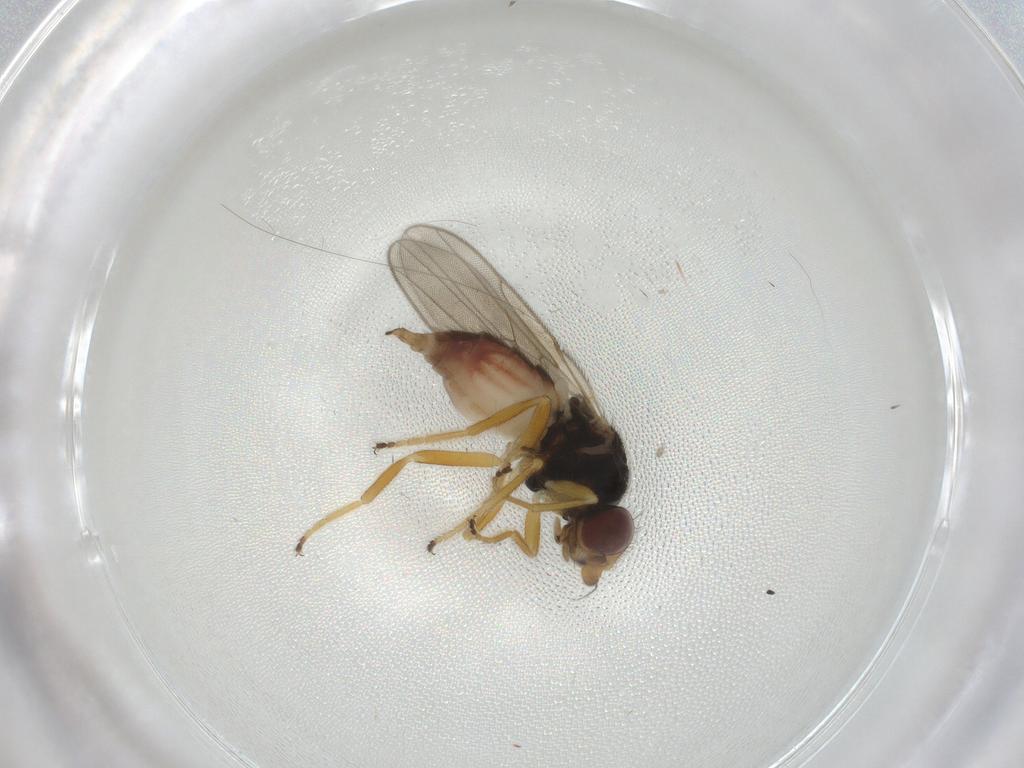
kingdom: Animalia
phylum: Arthropoda
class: Insecta
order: Diptera
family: Chloropidae
